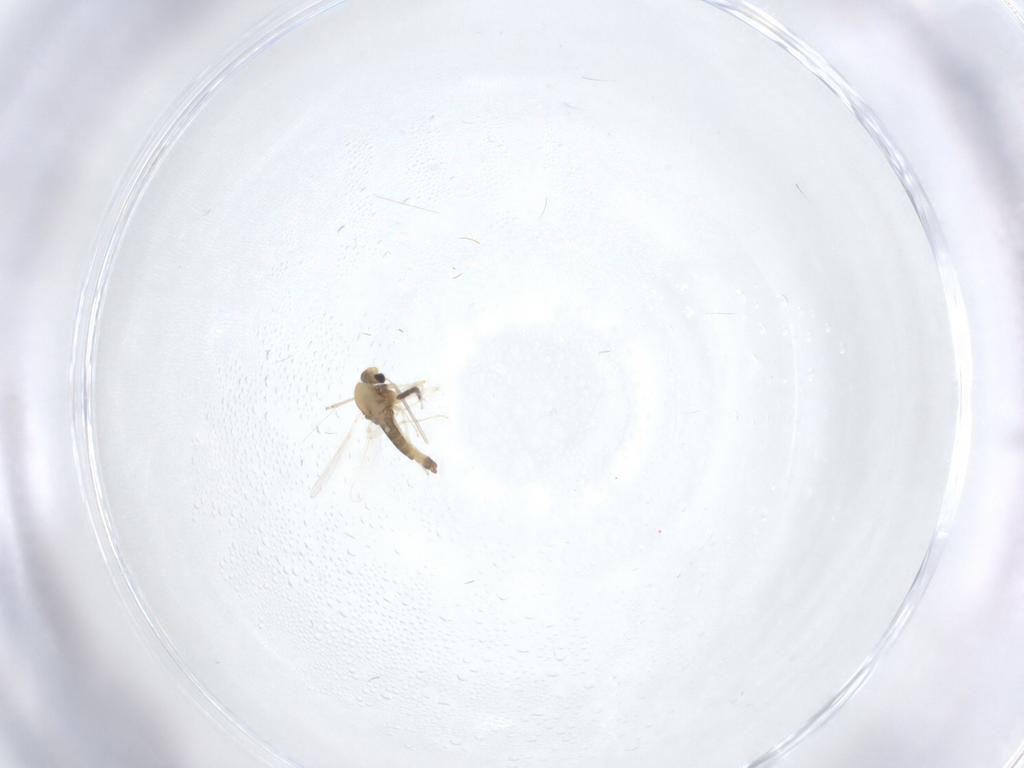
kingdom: Animalia
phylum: Arthropoda
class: Insecta
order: Diptera
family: Cecidomyiidae
